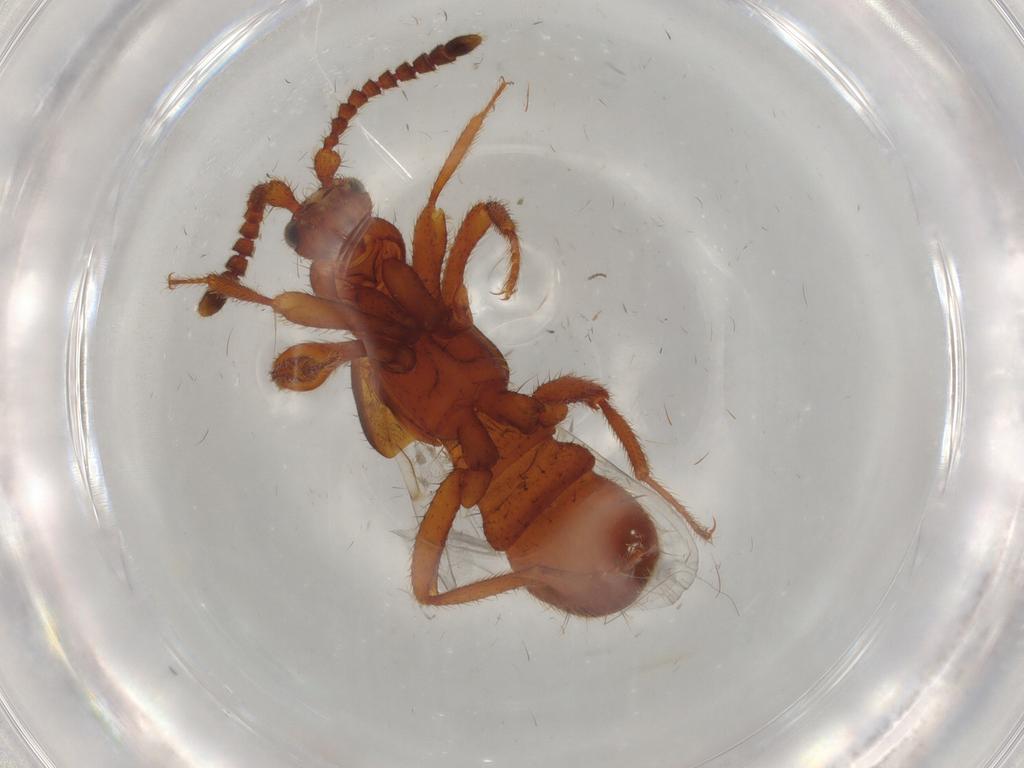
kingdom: Animalia
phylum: Arthropoda
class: Insecta
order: Coleoptera
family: Staphylinidae
